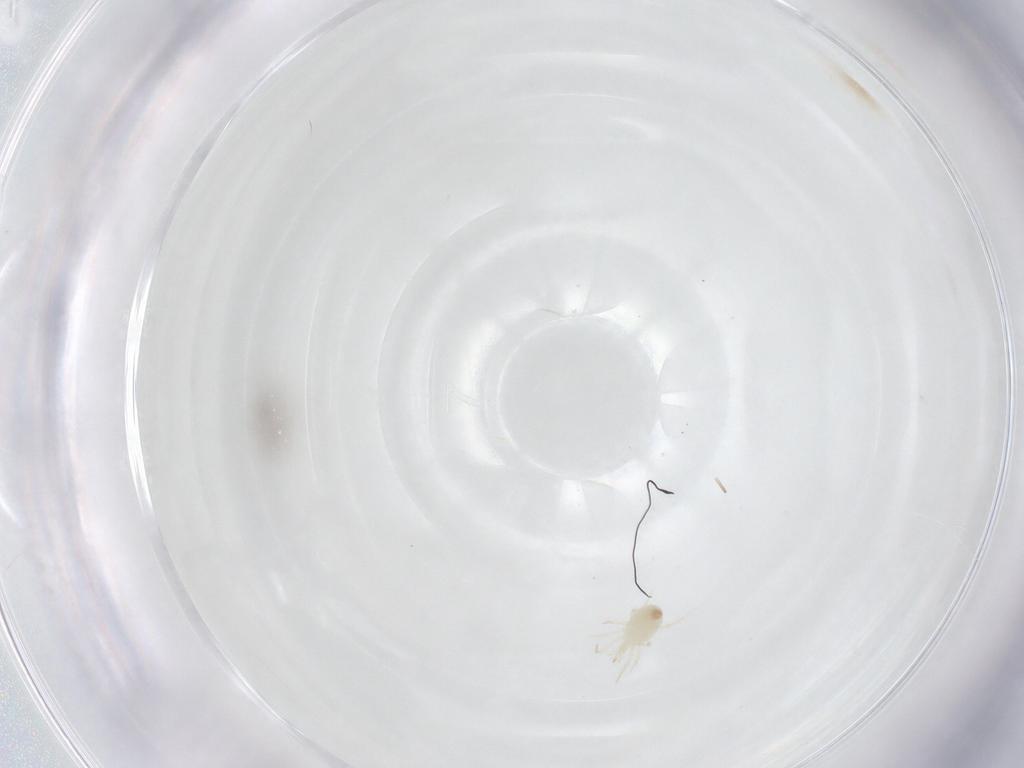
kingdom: Animalia
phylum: Arthropoda
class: Arachnida
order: Mesostigmata
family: Phytoseiidae
